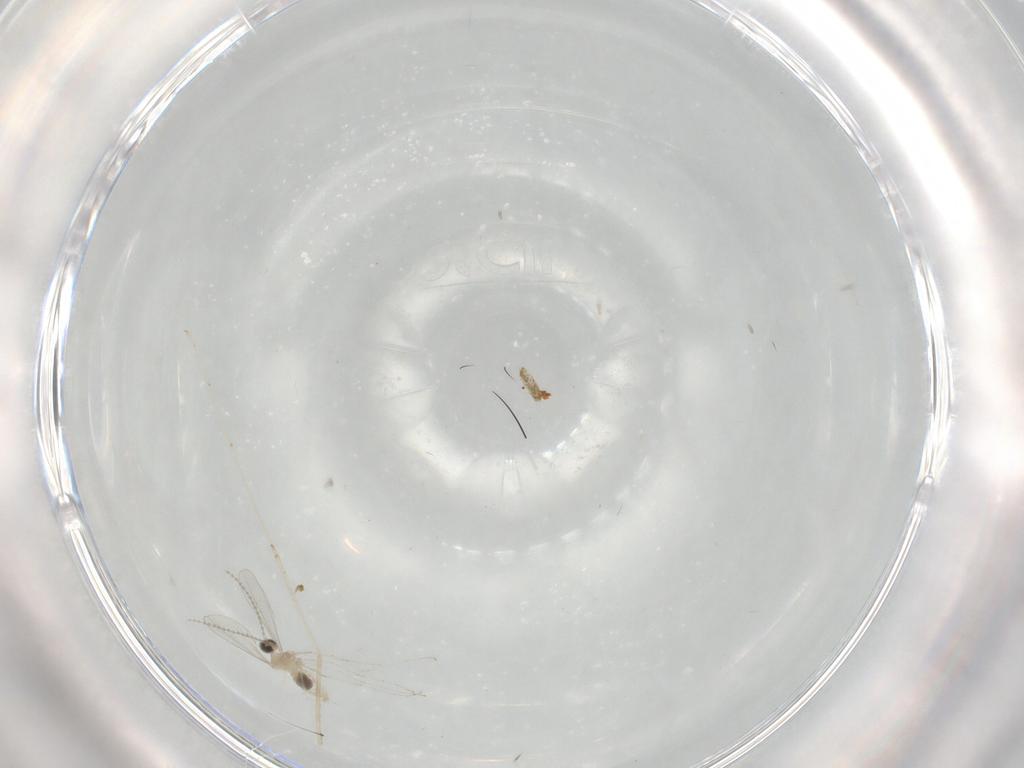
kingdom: Animalia
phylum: Arthropoda
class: Insecta
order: Diptera
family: Cecidomyiidae
